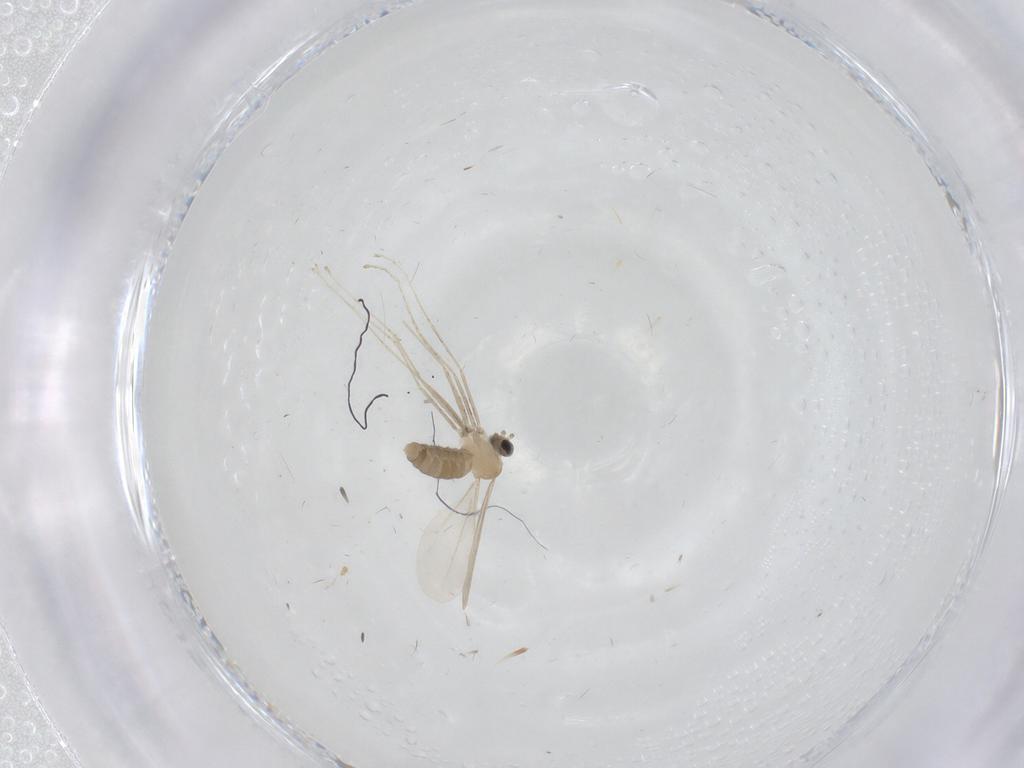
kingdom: Animalia
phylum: Arthropoda
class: Insecta
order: Diptera
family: Cecidomyiidae
